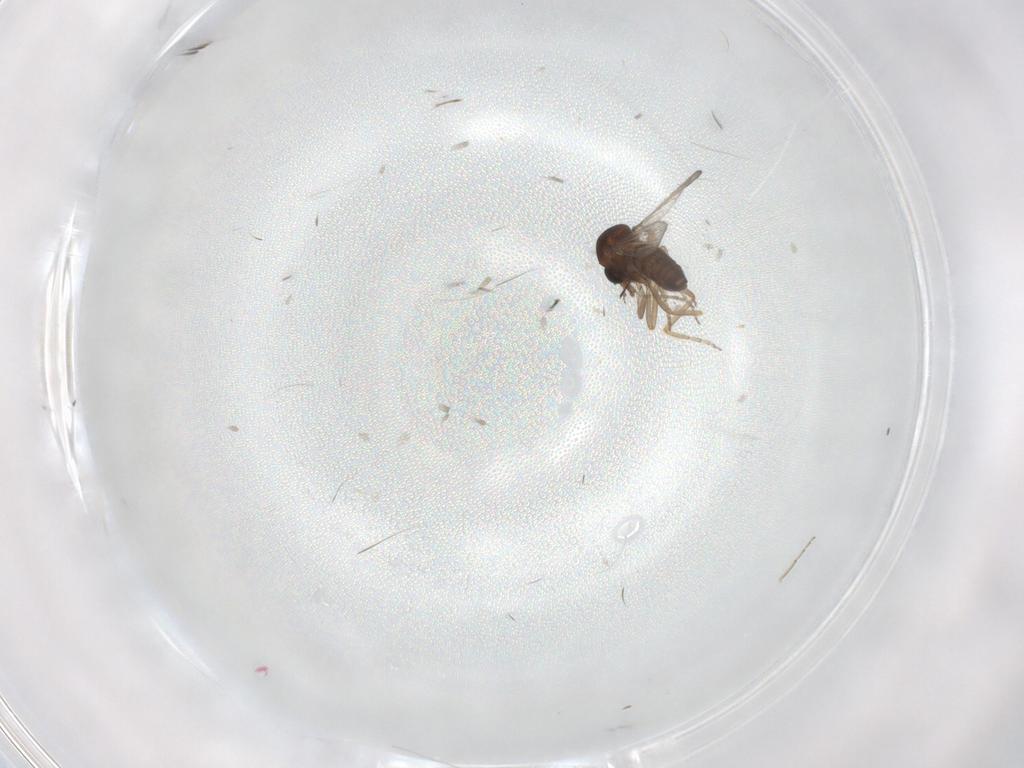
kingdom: Animalia
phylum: Arthropoda
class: Insecta
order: Diptera
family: Ceratopogonidae
